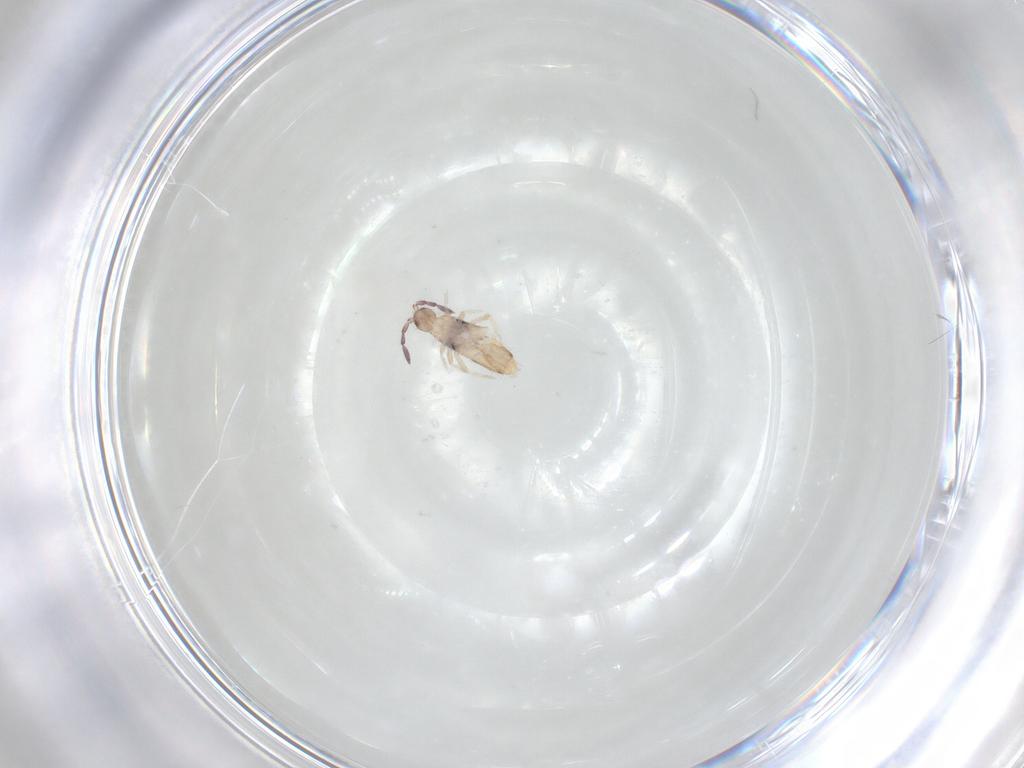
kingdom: Animalia
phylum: Arthropoda
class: Collembola
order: Entomobryomorpha
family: Entomobryidae
